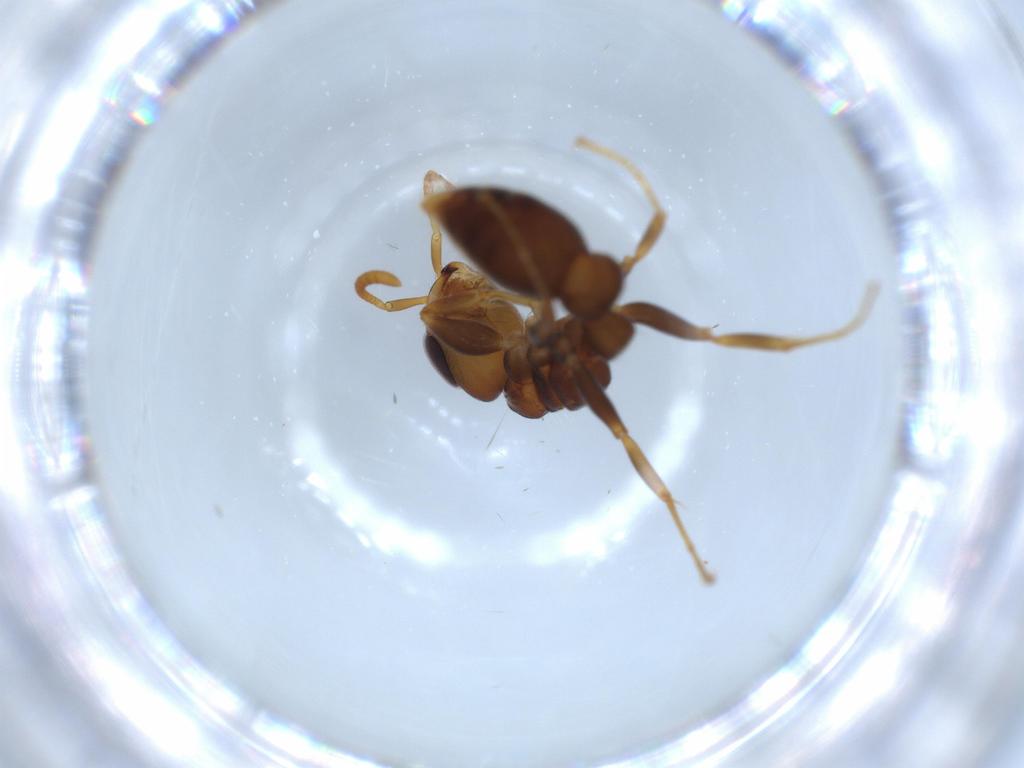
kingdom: Animalia
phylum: Arthropoda
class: Insecta
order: Hymenoptera
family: Formicidae
